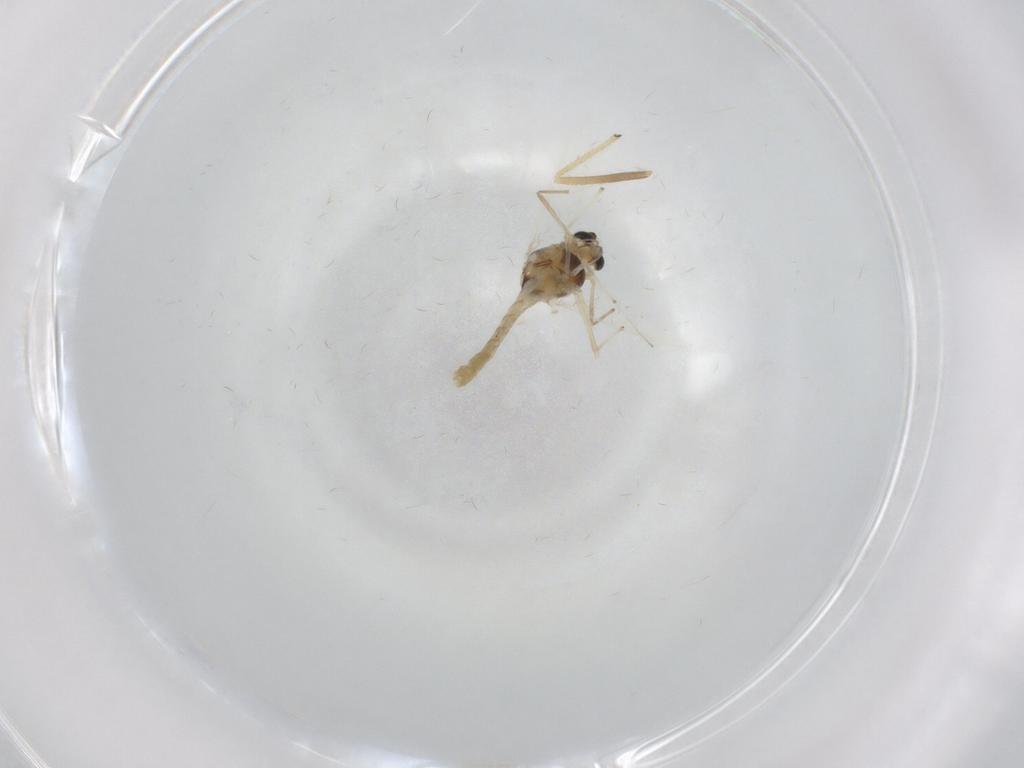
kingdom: Animalia
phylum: Arthropoda
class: Insecta
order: Diptera
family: Chironomidae
